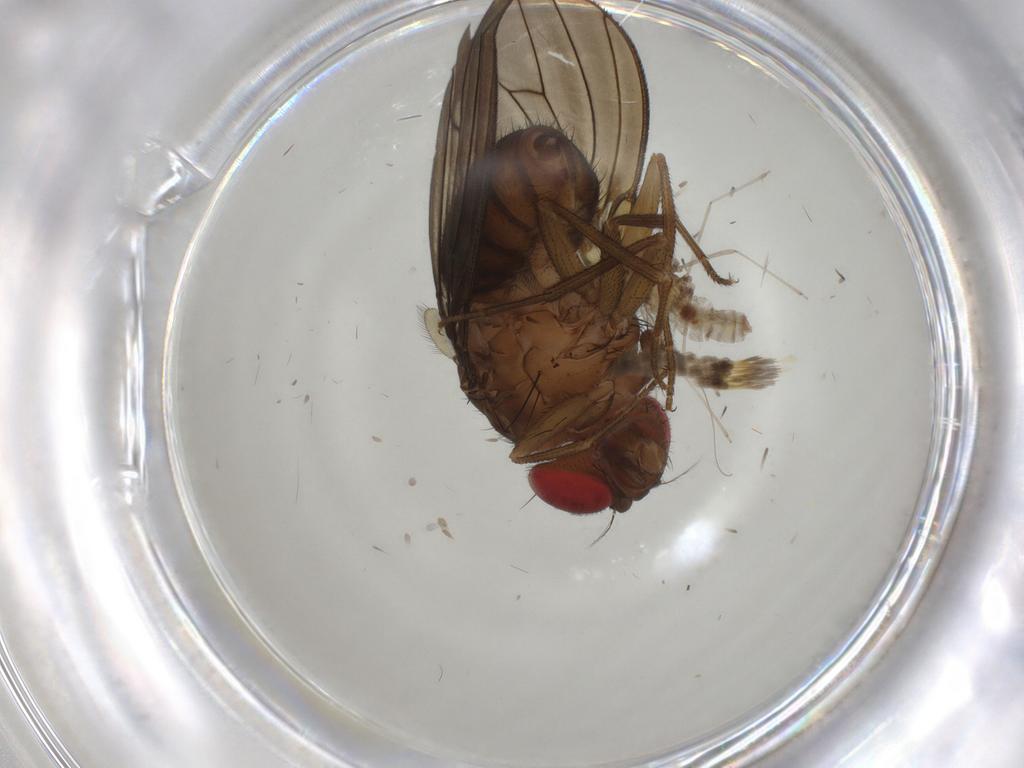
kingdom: Animalia
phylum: Arthropoda
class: Insecta
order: Diptera
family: Drosophilidae
